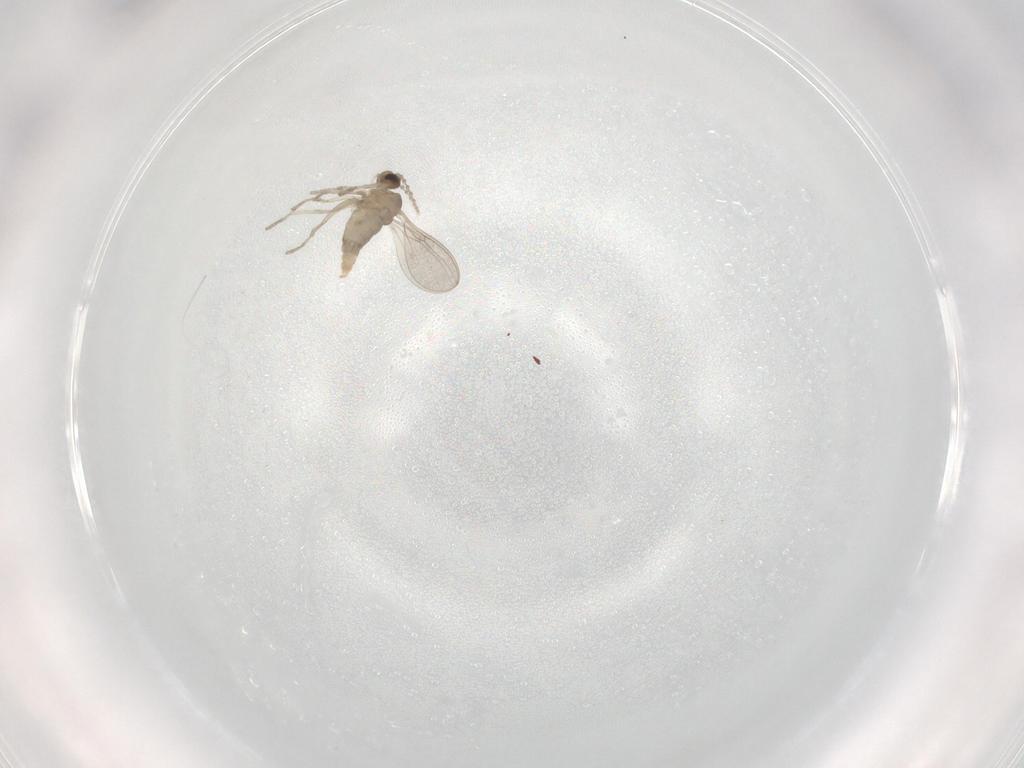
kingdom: Animalia
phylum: Arthropoda
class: Insecta
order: Diptera
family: Cecidomyiidae
